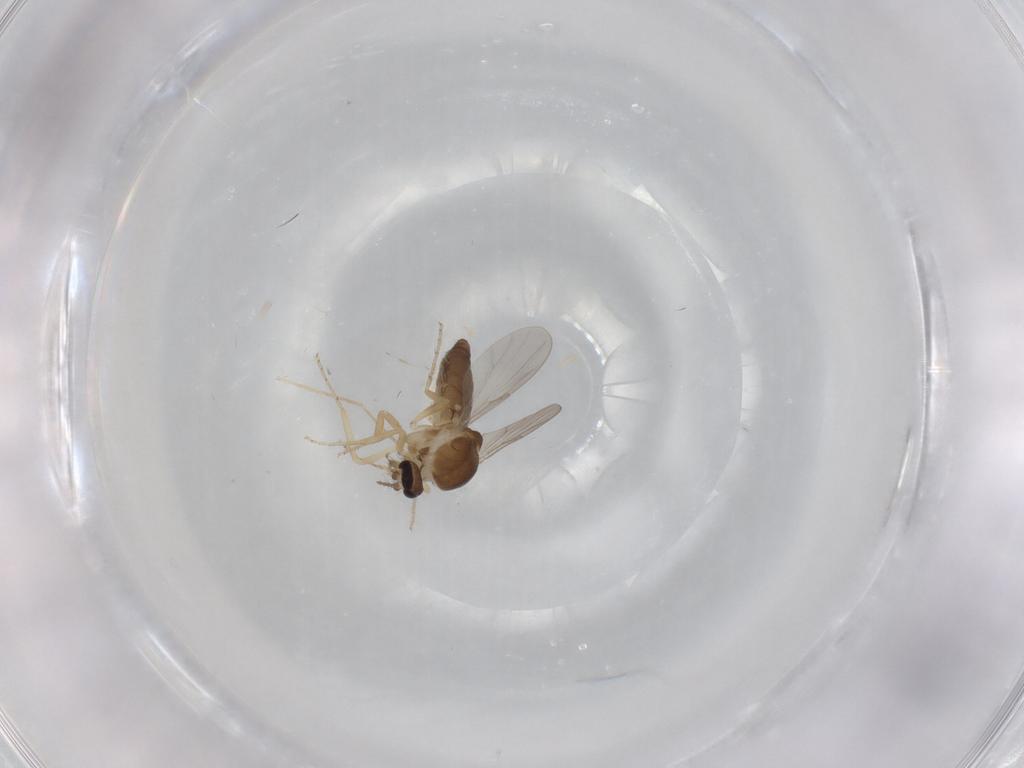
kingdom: Animalia
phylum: Arthropoda
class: Insecta
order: Diptera
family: Ceratopogonidae
